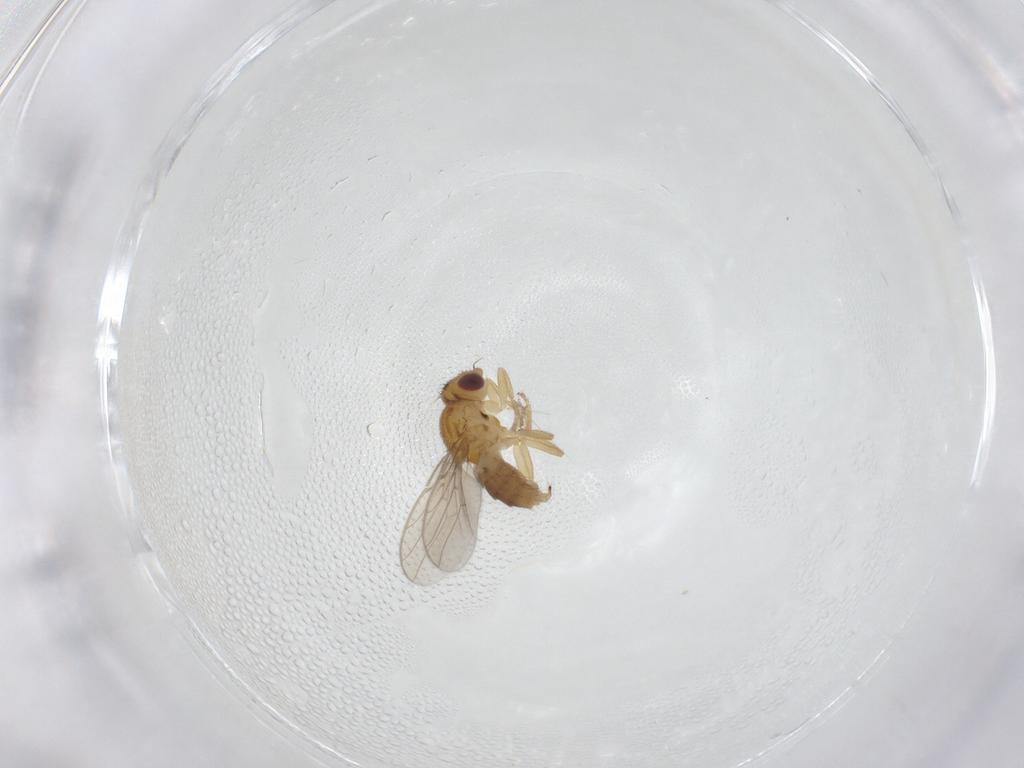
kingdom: Animalia
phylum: Arthropoda
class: Insecta
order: Diptera
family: Chloropidae
